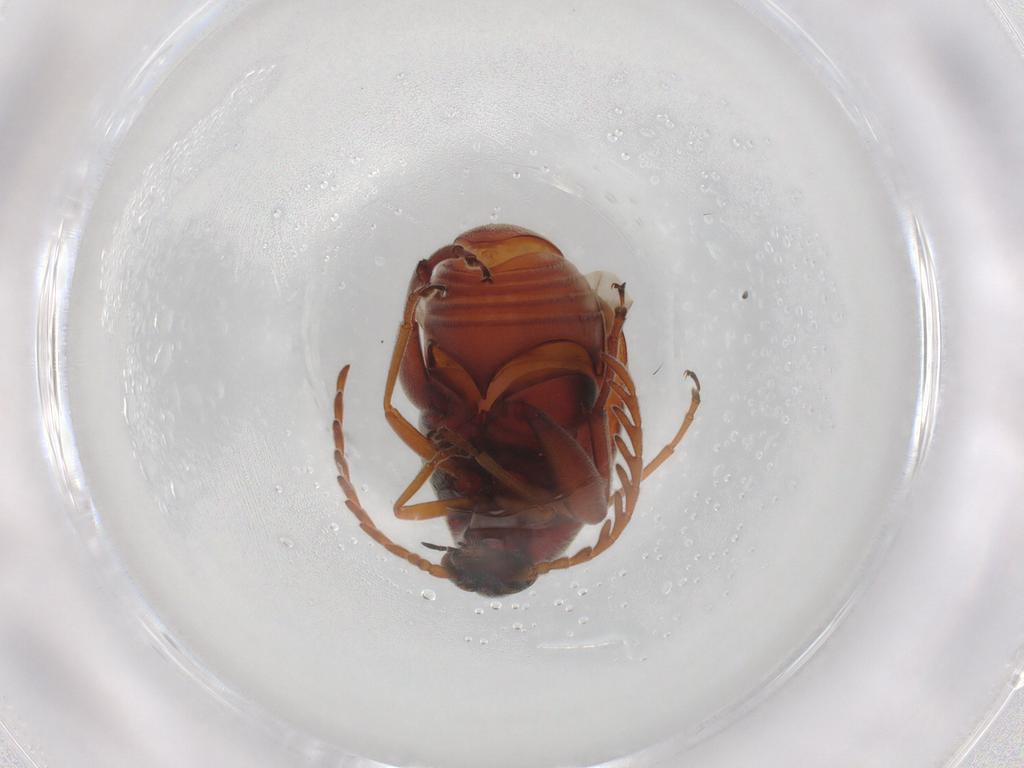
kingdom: Animalia
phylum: Arthropoda
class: Insecta
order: Coleoptera
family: Chrysomelidae
